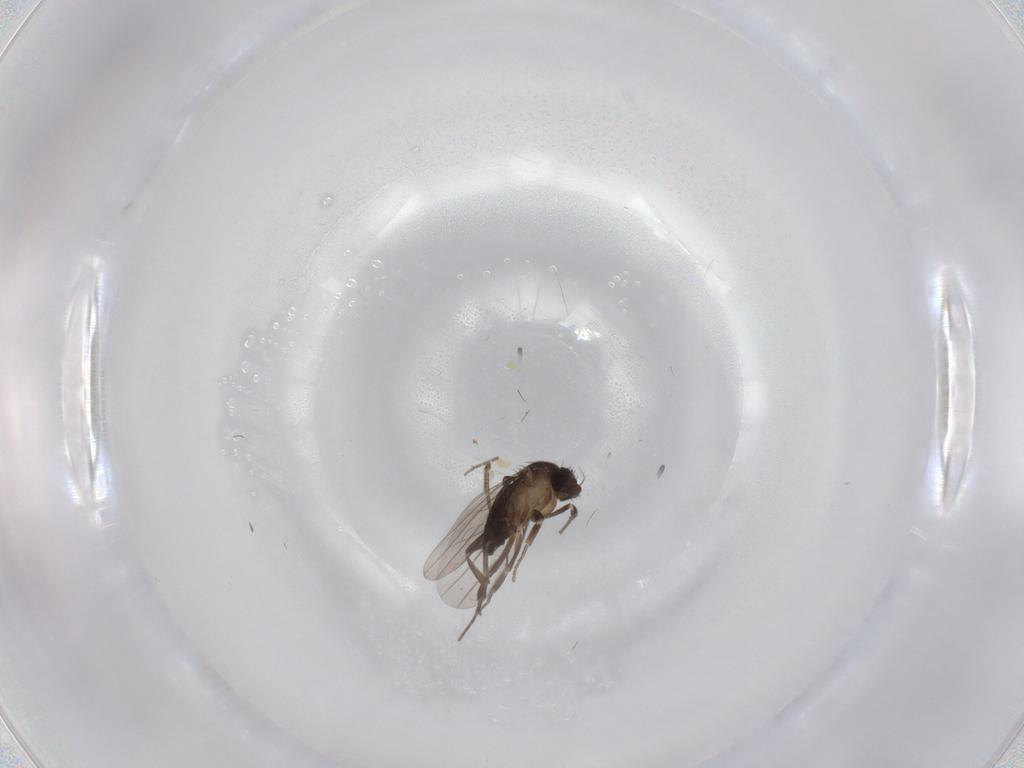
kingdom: Animalia
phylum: Arthropoda
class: Insecta
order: Diptera
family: Phoridae
